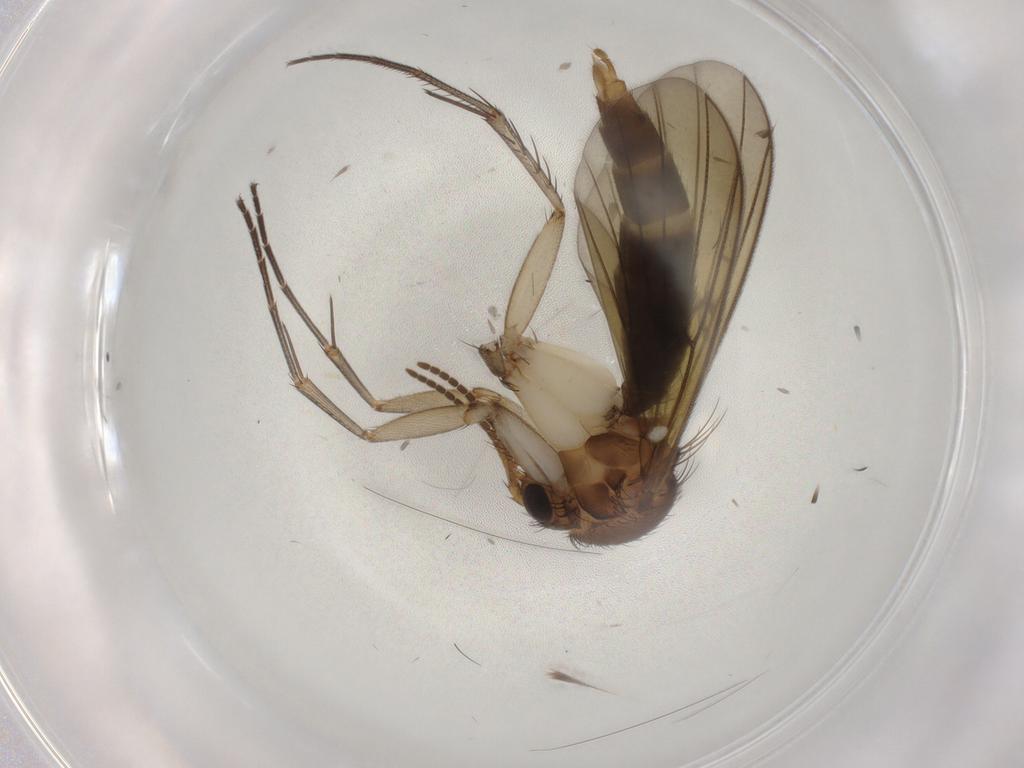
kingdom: Animalia
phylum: Arthropoda
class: Insecta
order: Diptera
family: Mycetophilidae
